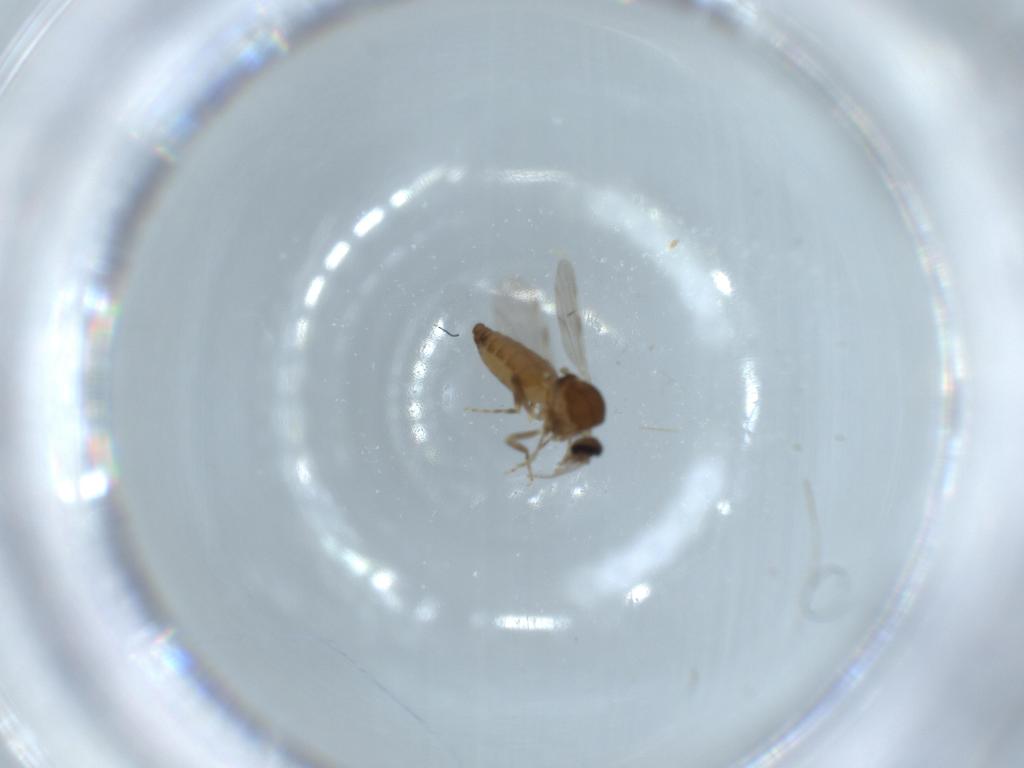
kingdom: Animalia
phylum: Arthropoda
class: Insecta
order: Diptera
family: Ceratopogonidae
